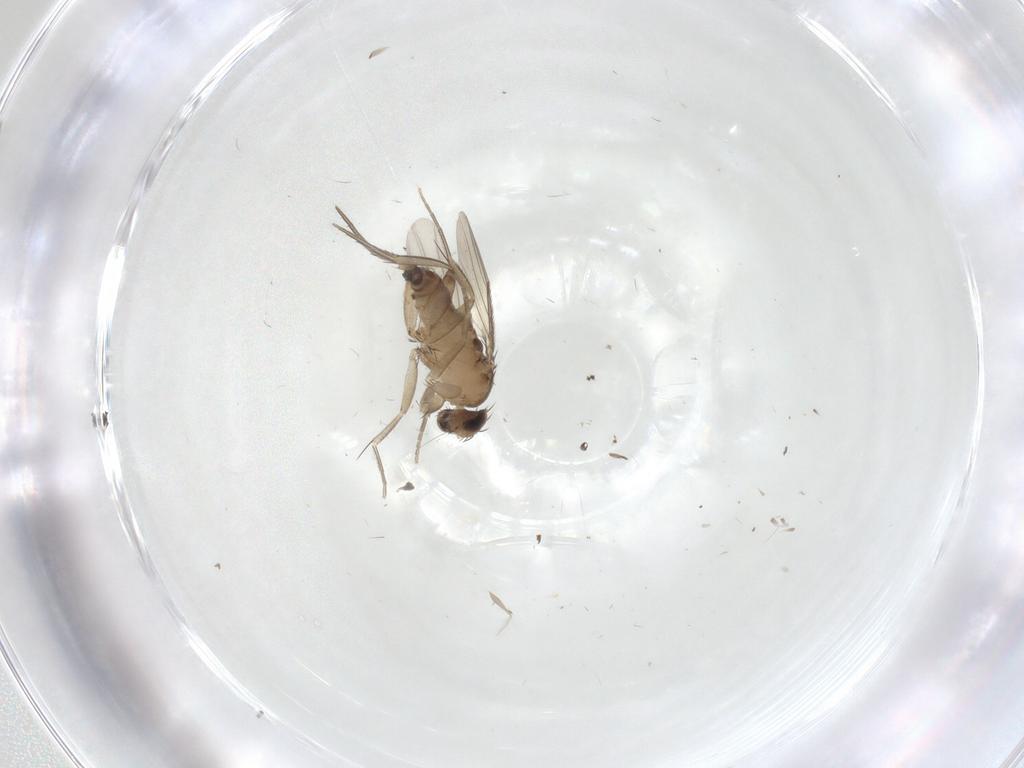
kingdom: Animalia
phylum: Arthropoda
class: Insecta
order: Diptera
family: Phoridae
